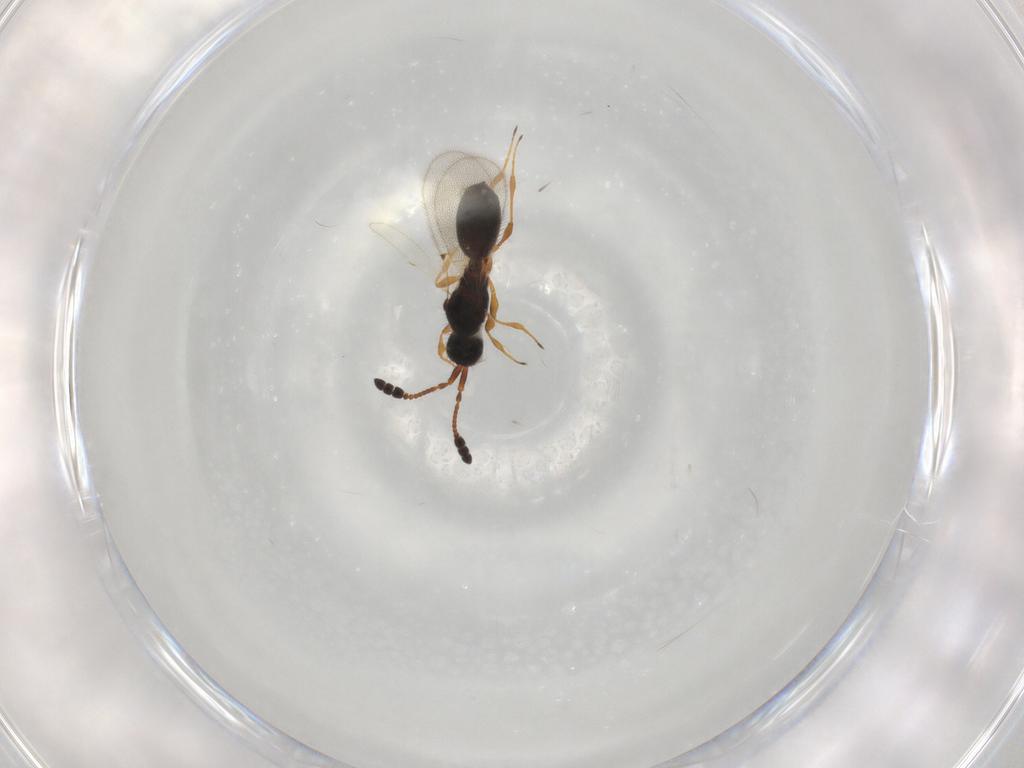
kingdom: Animalia
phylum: Arthropoda
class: Insecta
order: Hymenoptera
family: Diapriidae
